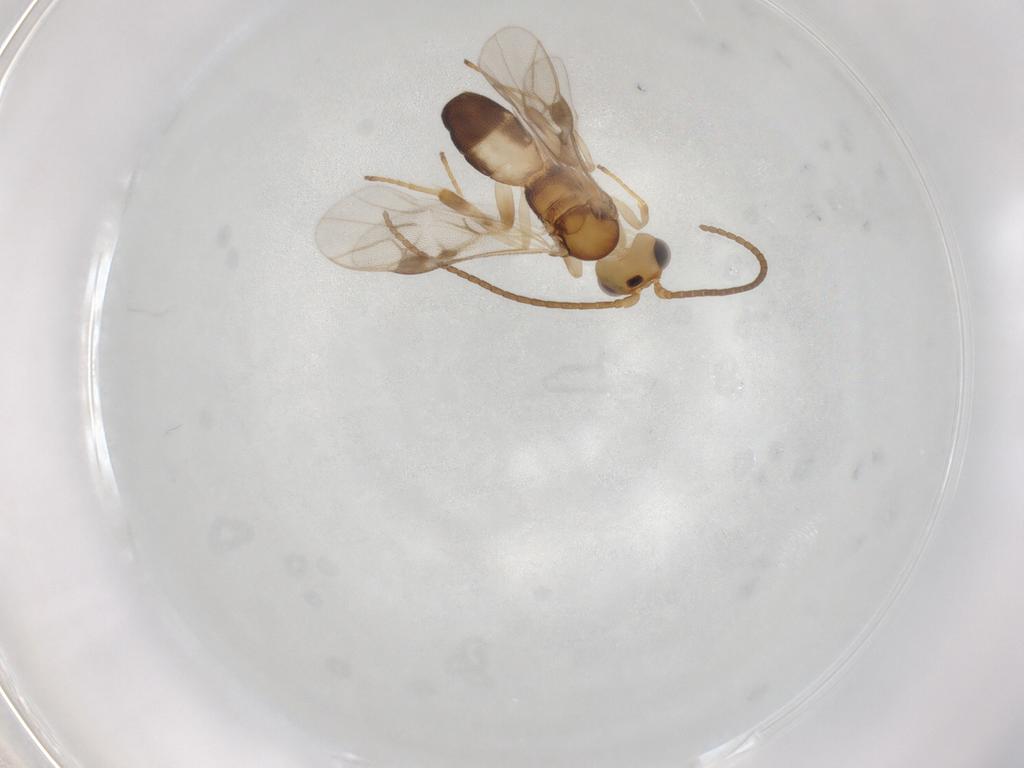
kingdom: Animalia
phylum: Arthropoda
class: Insecta
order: Hymenoptera
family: Braconidae
